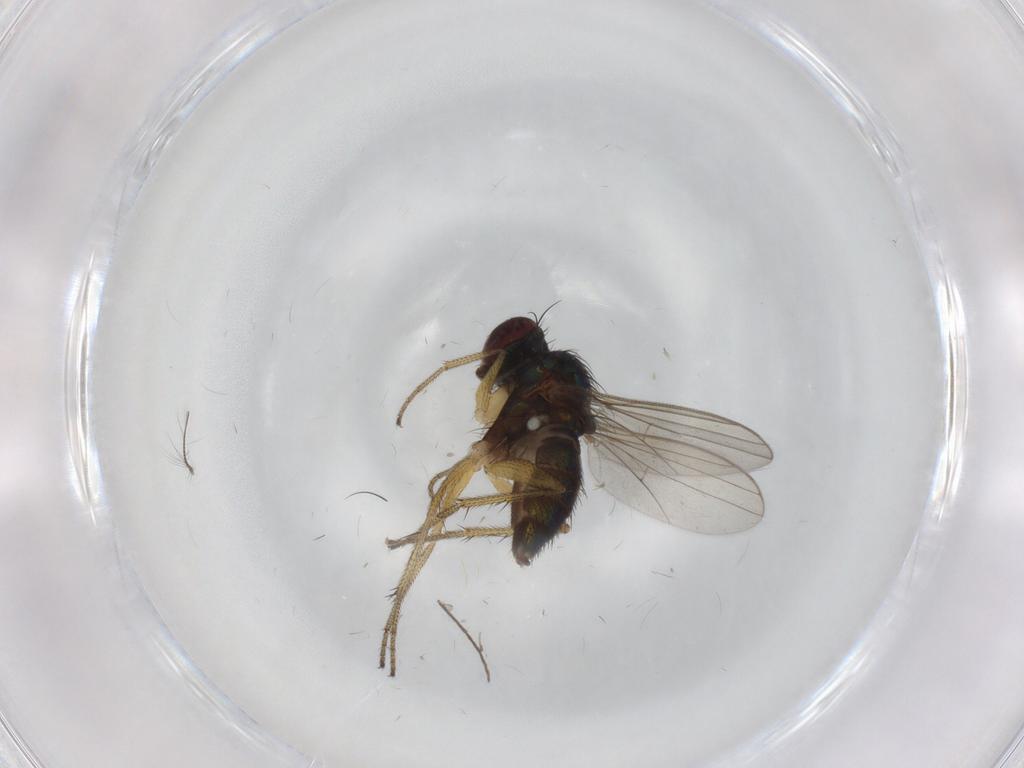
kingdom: Animalia
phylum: Arthropoda
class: Insecta
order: Diptera
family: Chironomidae
